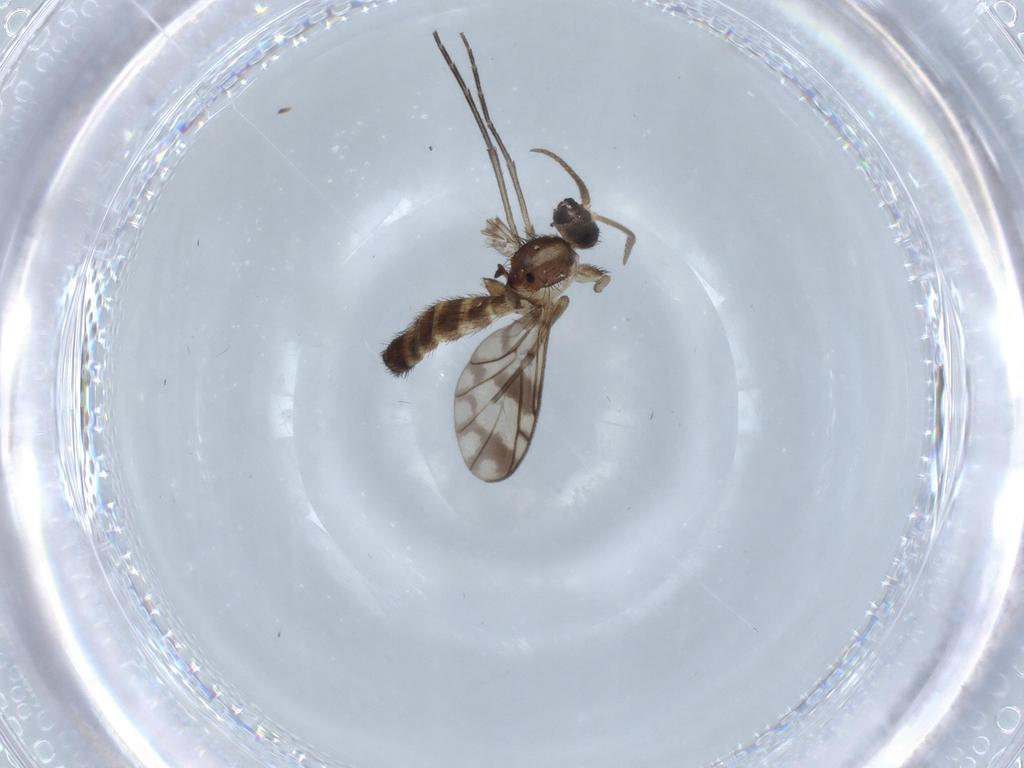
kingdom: Animalia
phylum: Arthropoda
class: Insecta
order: Diptera
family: Cecidomyiidae
